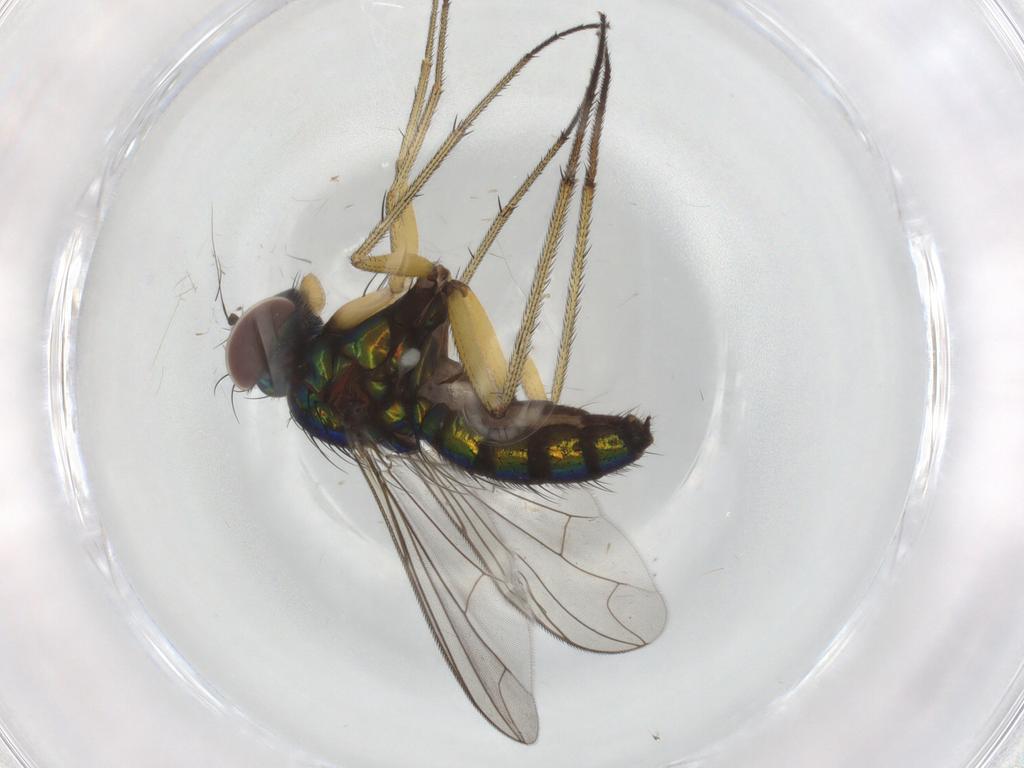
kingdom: Animalia
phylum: Arthropoda
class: Insecta
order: Diptera
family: Dolichopodidae
